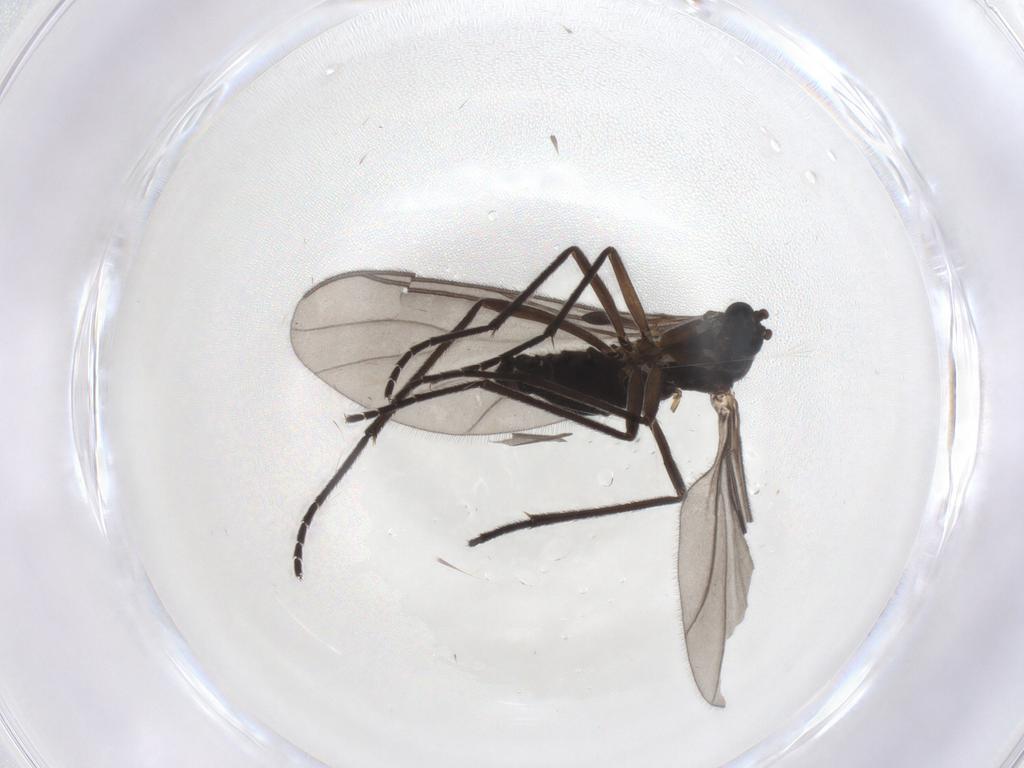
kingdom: Animalia
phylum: Arthropoda
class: Insecta
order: Diptera
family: Sciaridae
